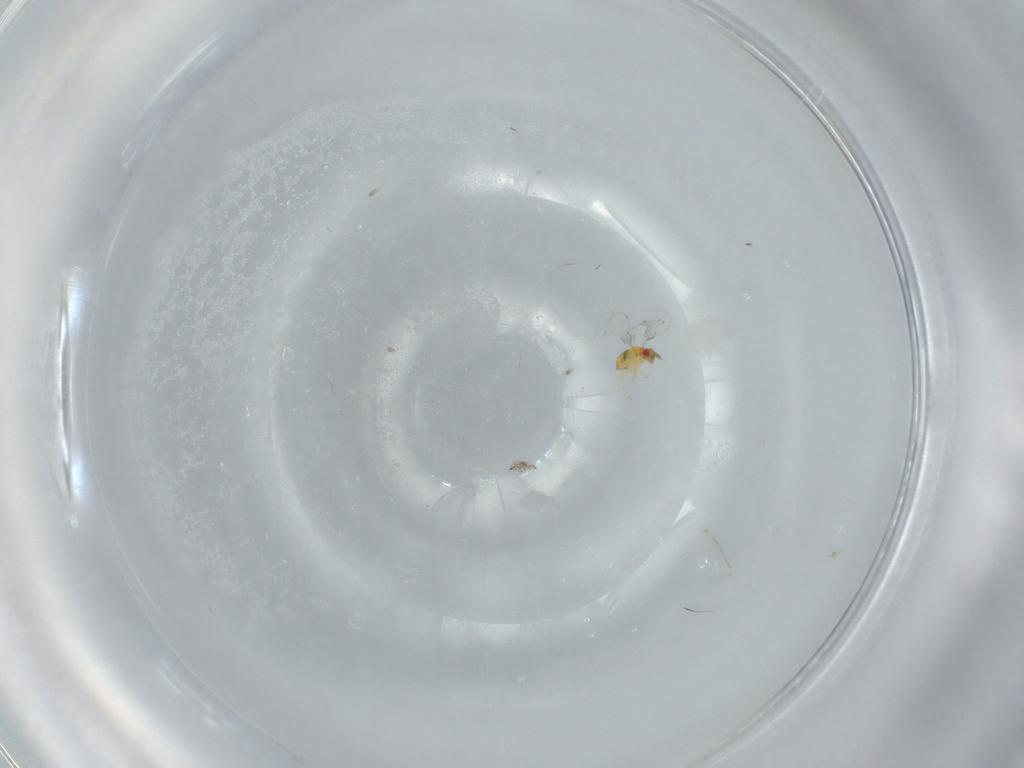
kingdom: Animalia
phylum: Arthropoda
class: Insecta
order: Hymenoptera
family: Trichogrammatidae
